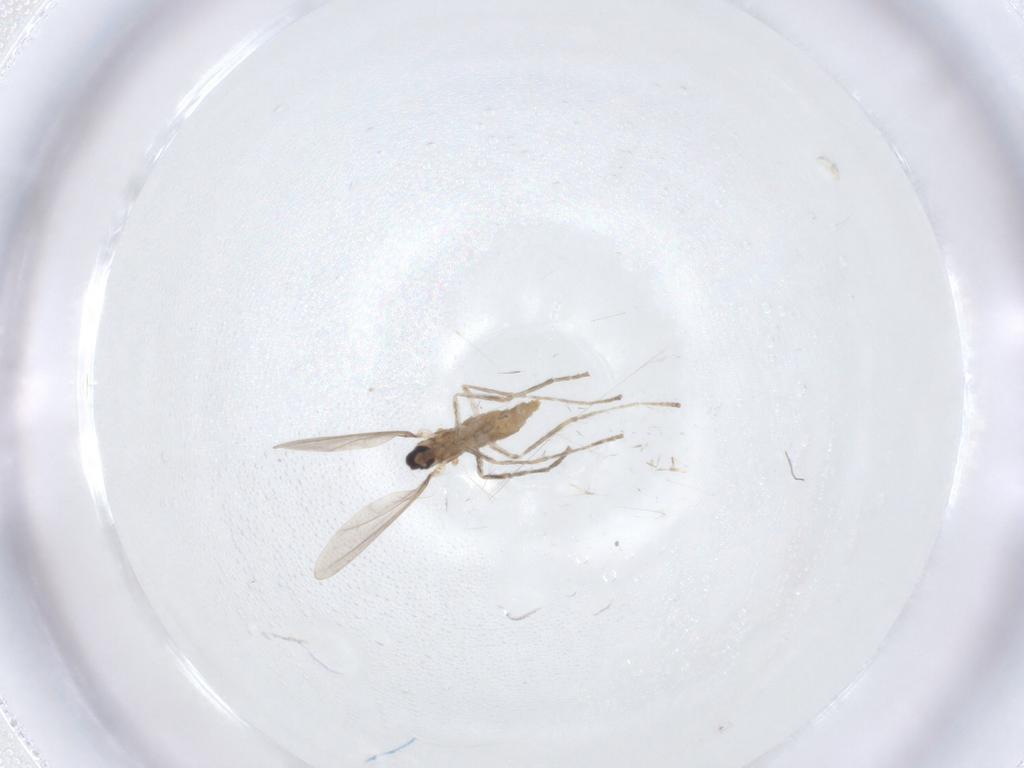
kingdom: Animalia
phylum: Arthropoda
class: Insecta
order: Diptera
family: Cecidomyiidae
